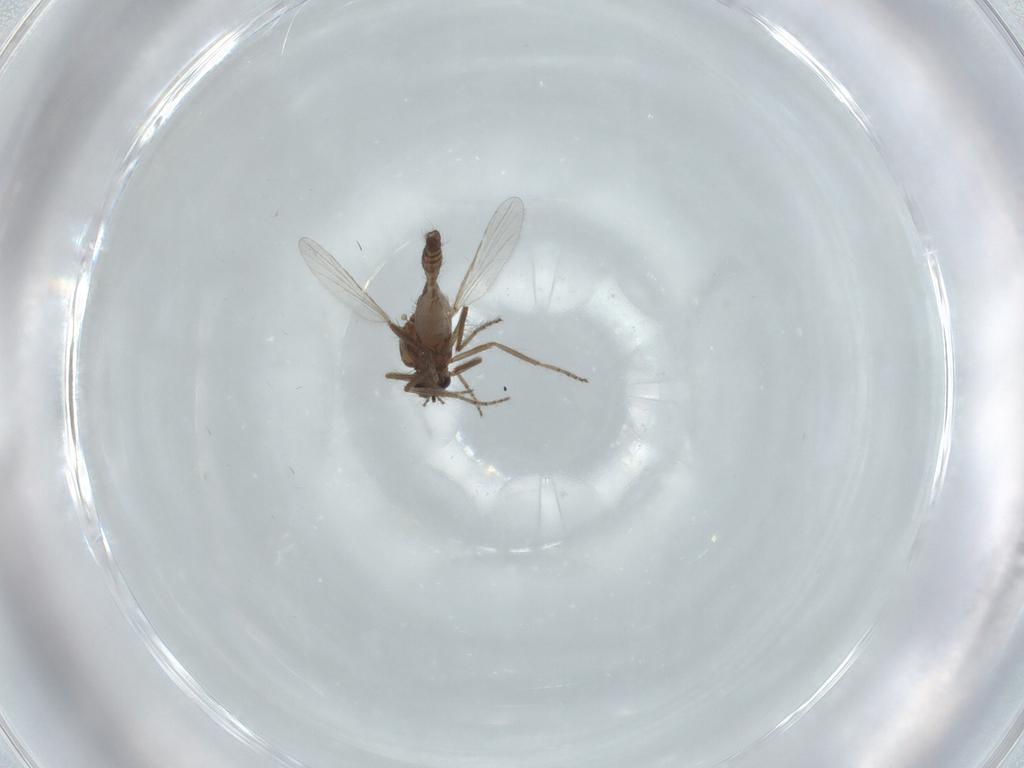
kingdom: Animalia
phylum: Arthropoda
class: Insecta
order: Diptera
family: Ceratopogonidae
